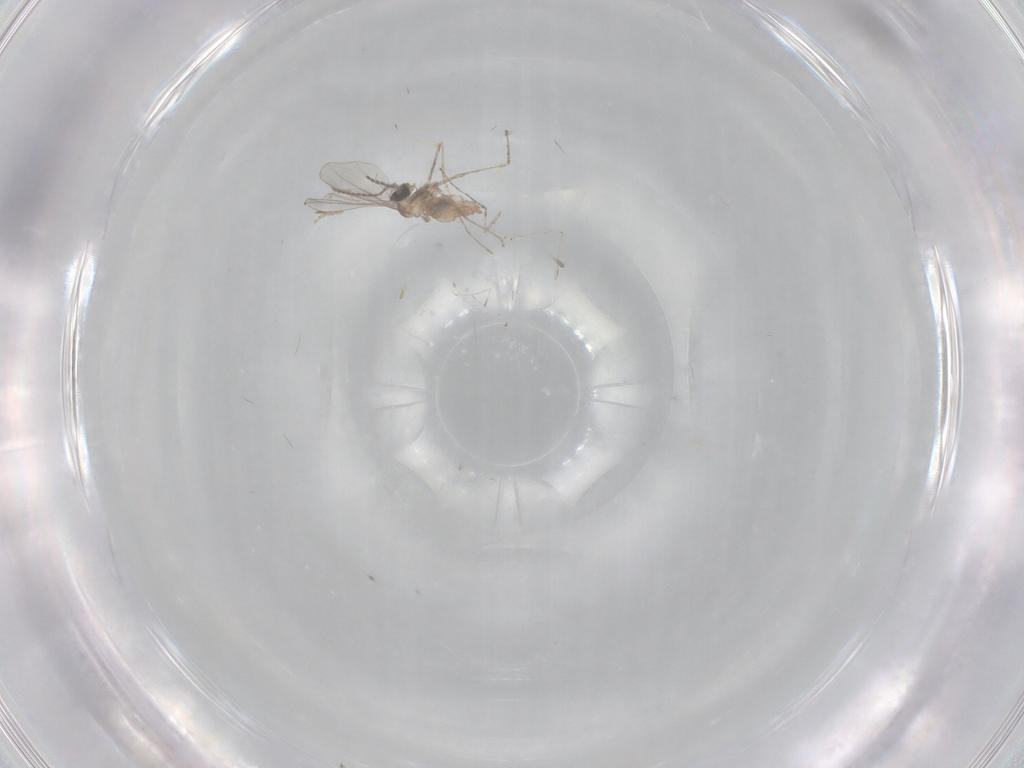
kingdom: Animalia
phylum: Arthropoda
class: Insecta
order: Diptera
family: Cecidomyiidae
